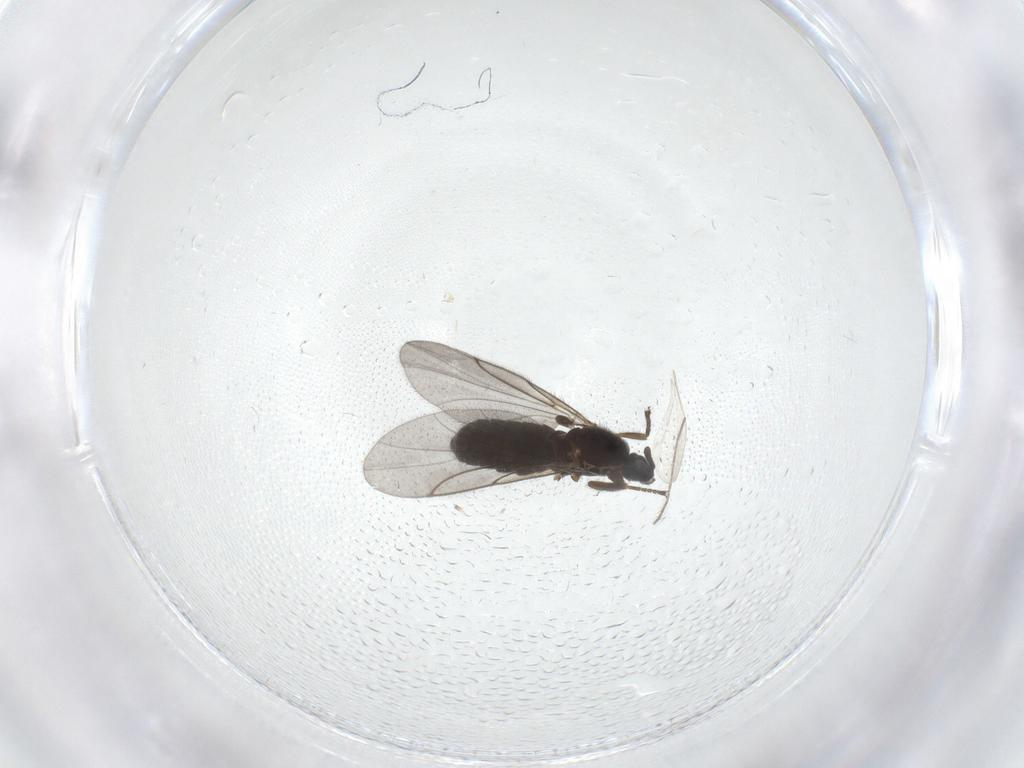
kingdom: Animalia
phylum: Arthropoda
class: Insecta
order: Diptera
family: Scatopsidae
